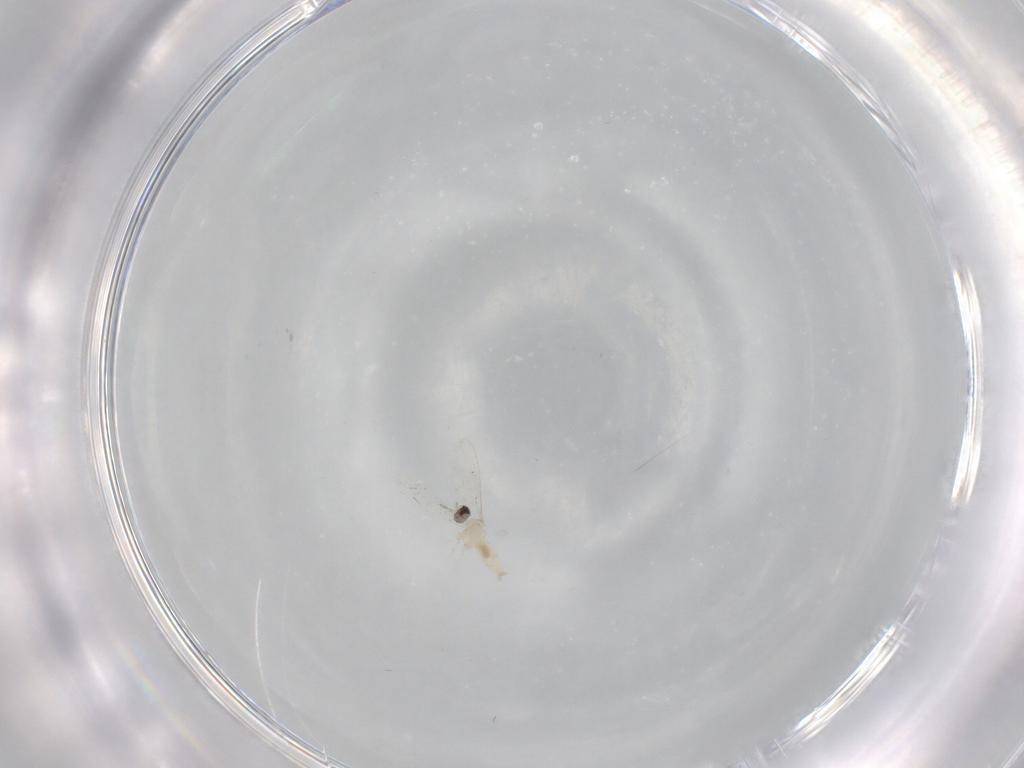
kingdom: Animalia
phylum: Arthropoda
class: Insecta
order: Diptera
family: Cecidomyiidae
